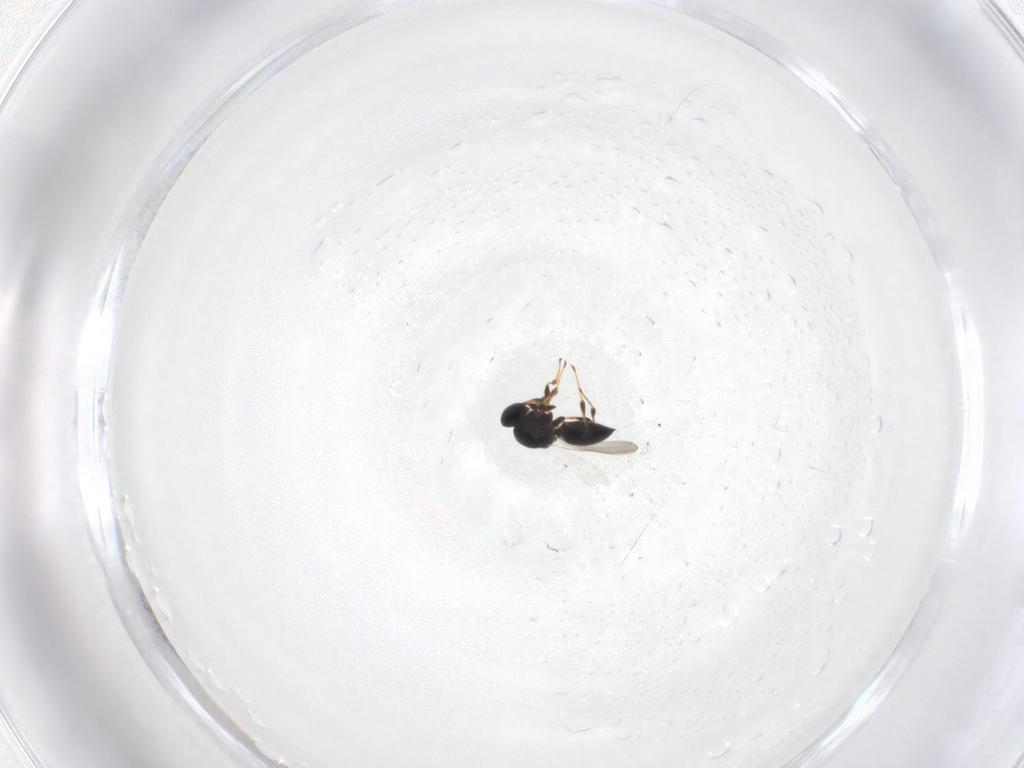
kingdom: Animalia
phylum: Arthropoda
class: Insecta
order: Hymenoptera
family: Platygastridae
